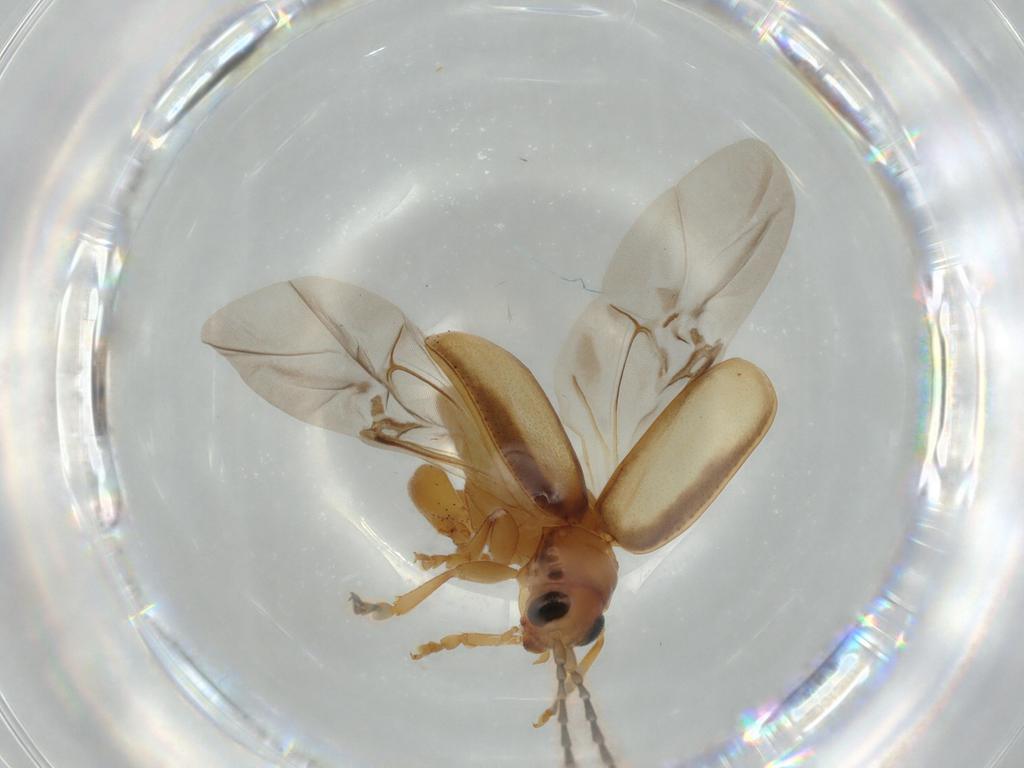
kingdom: Animalia
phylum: Arthropoda
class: Insecta
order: Coleoptera
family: Chrysomelidae
